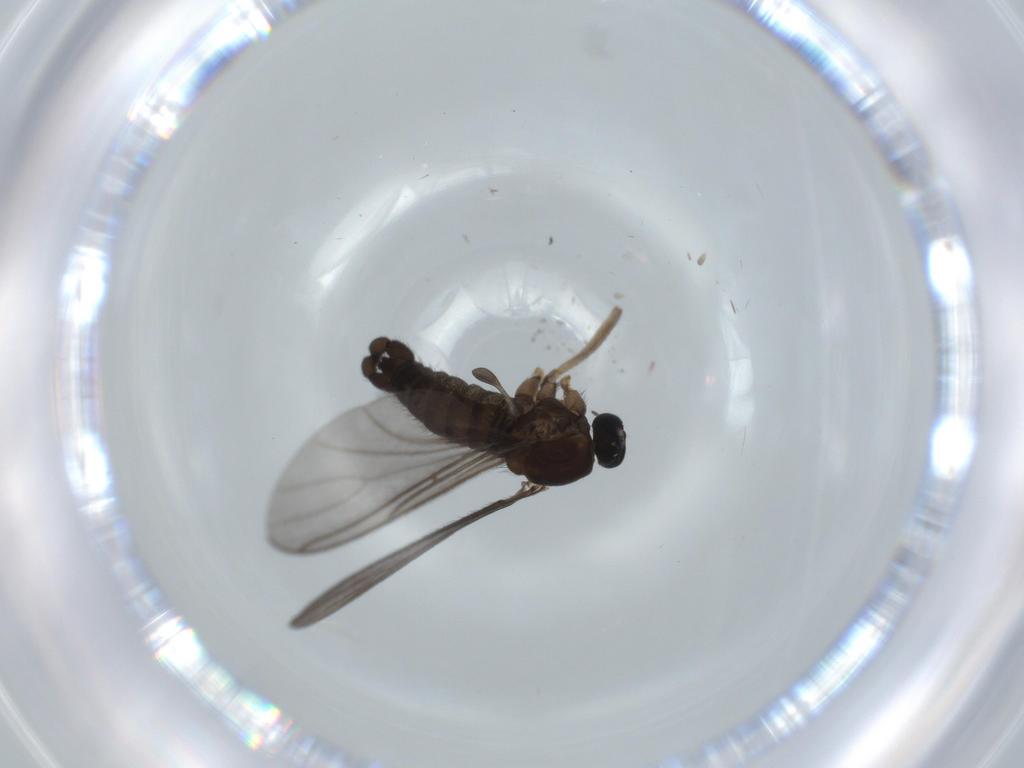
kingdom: Animalia
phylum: Arthropoda
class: Insecta
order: Diptera
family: Sciaridae
